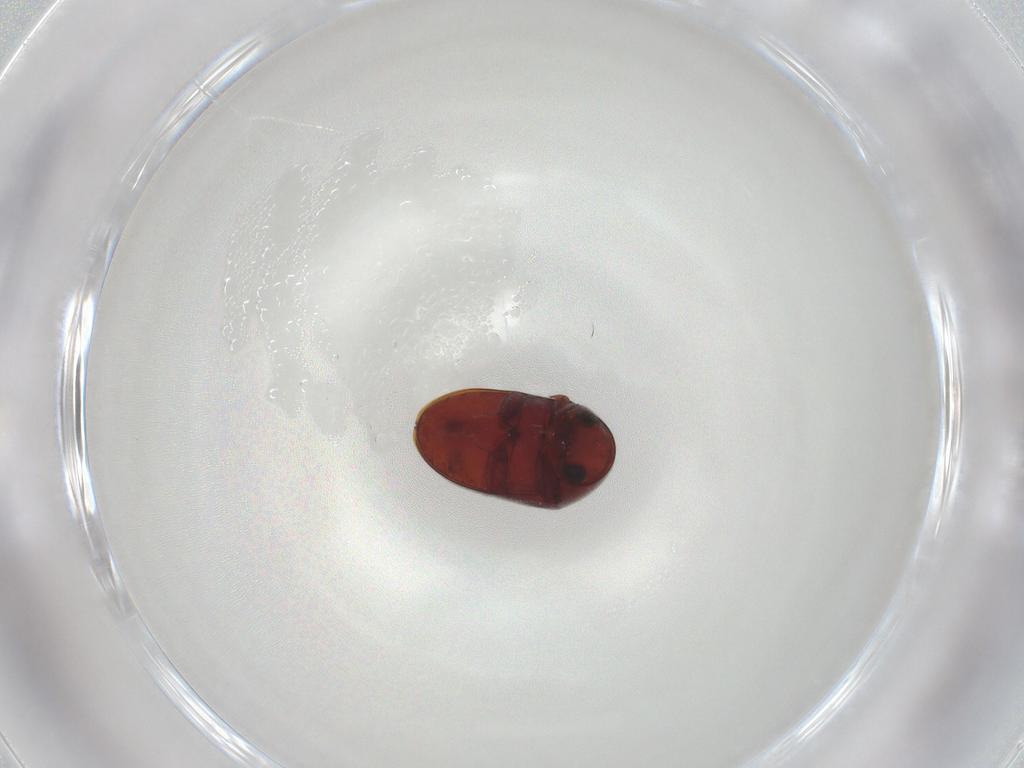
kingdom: Animalia
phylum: Arthropoda
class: Insecta
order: Coleoptera
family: Ptinidae
